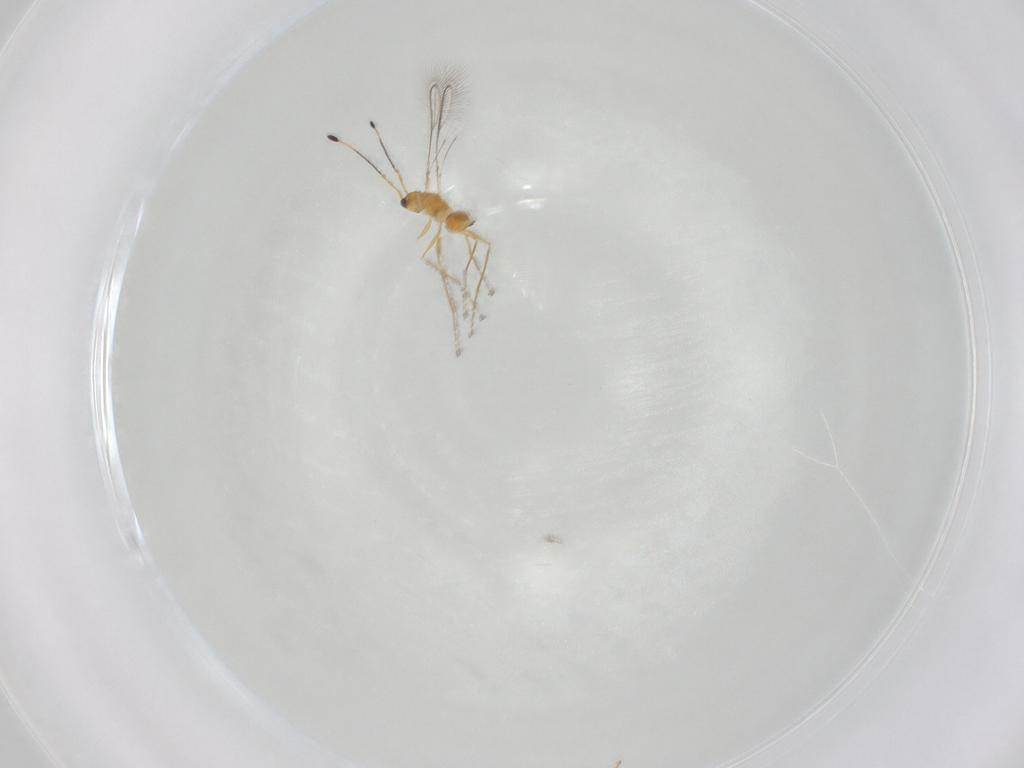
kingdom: Animalia
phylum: Arthropoda
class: Insecta
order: Hymenoptera
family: Mymaridae
